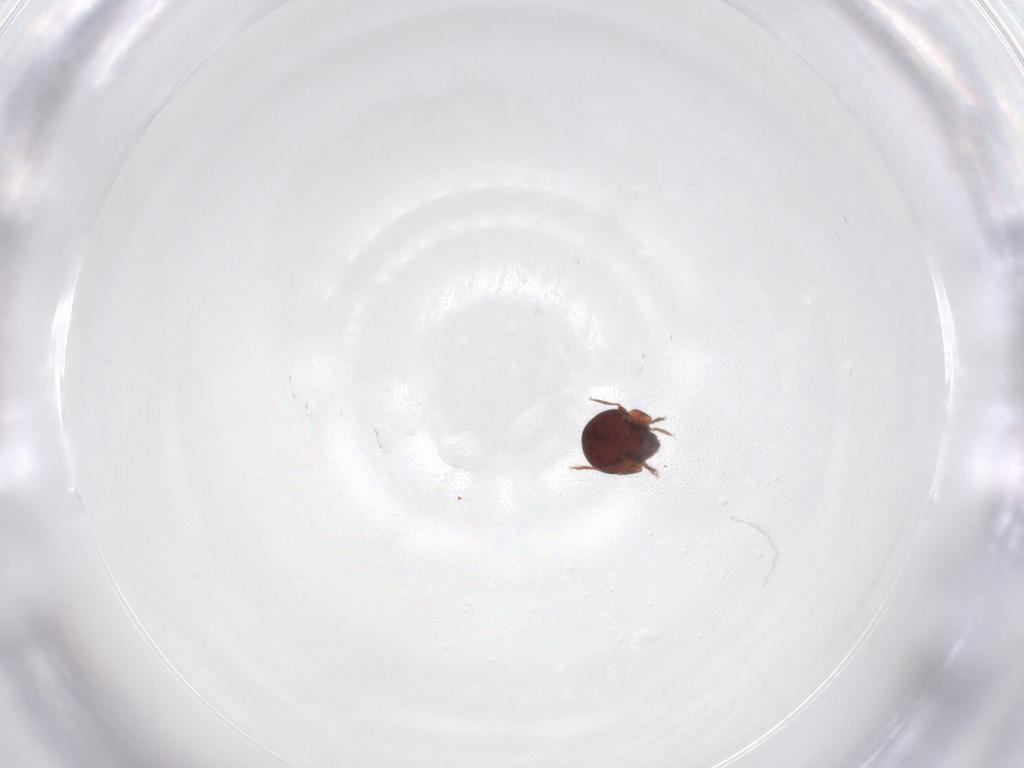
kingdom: Animalia
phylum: Arthropoda
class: Arachnida
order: Sarcoptiformes
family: Humerobatidae
